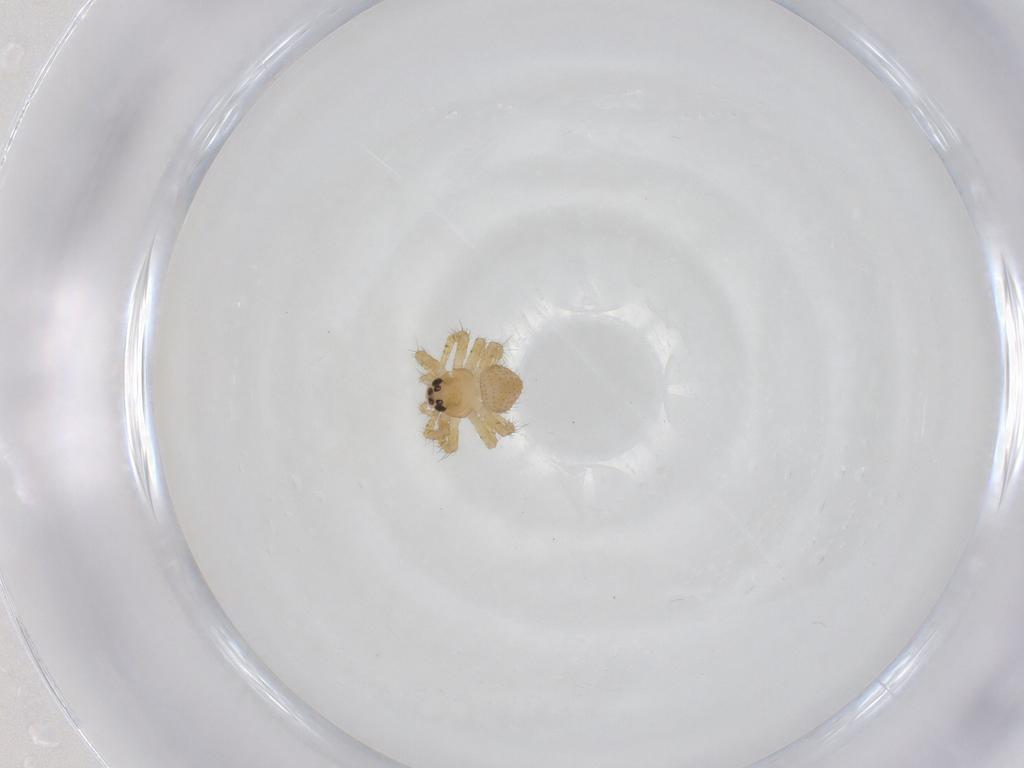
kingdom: Animalia
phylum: Arthropoda
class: Arachnida
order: Araneae
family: Theridiidae
